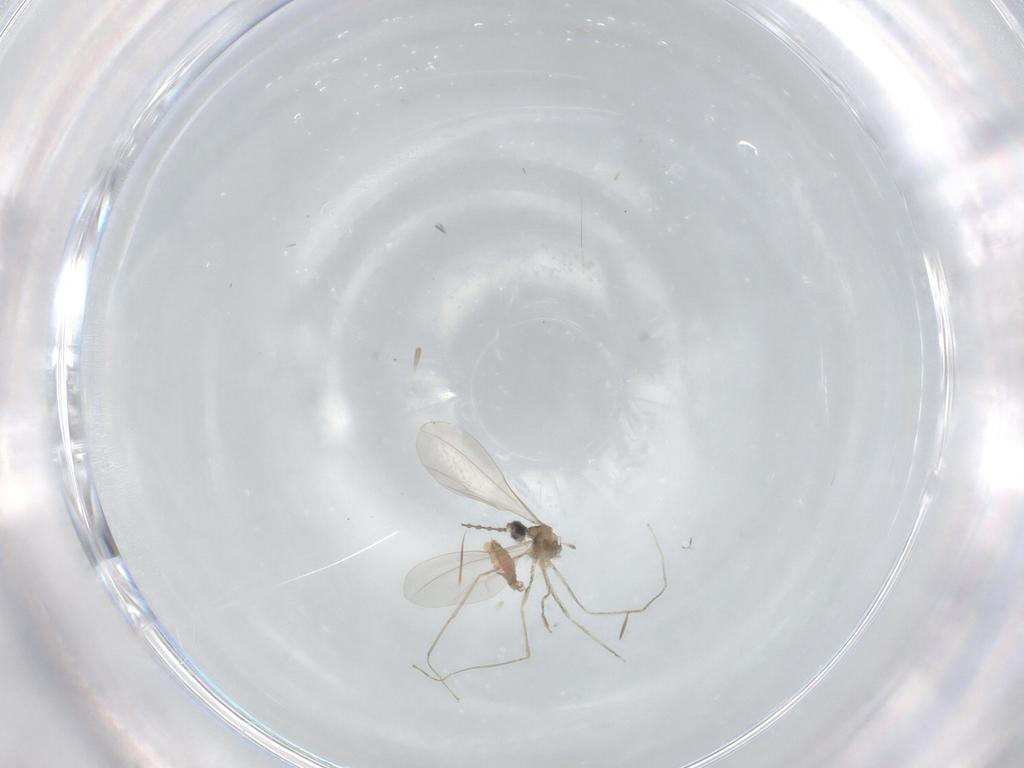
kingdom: Animalia
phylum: Arthropoda
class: Insecta
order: Diptera
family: Cecidomyiidae
